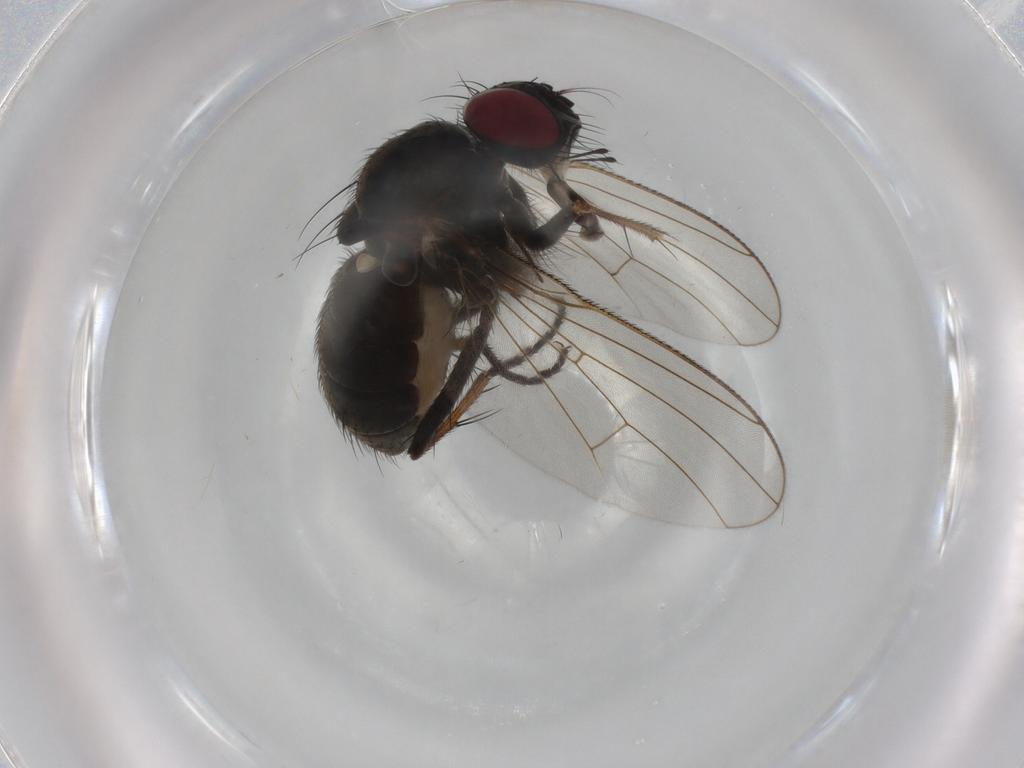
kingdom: Animalia
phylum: Arthropoda
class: Insecta
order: Diptera
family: Muscidae
